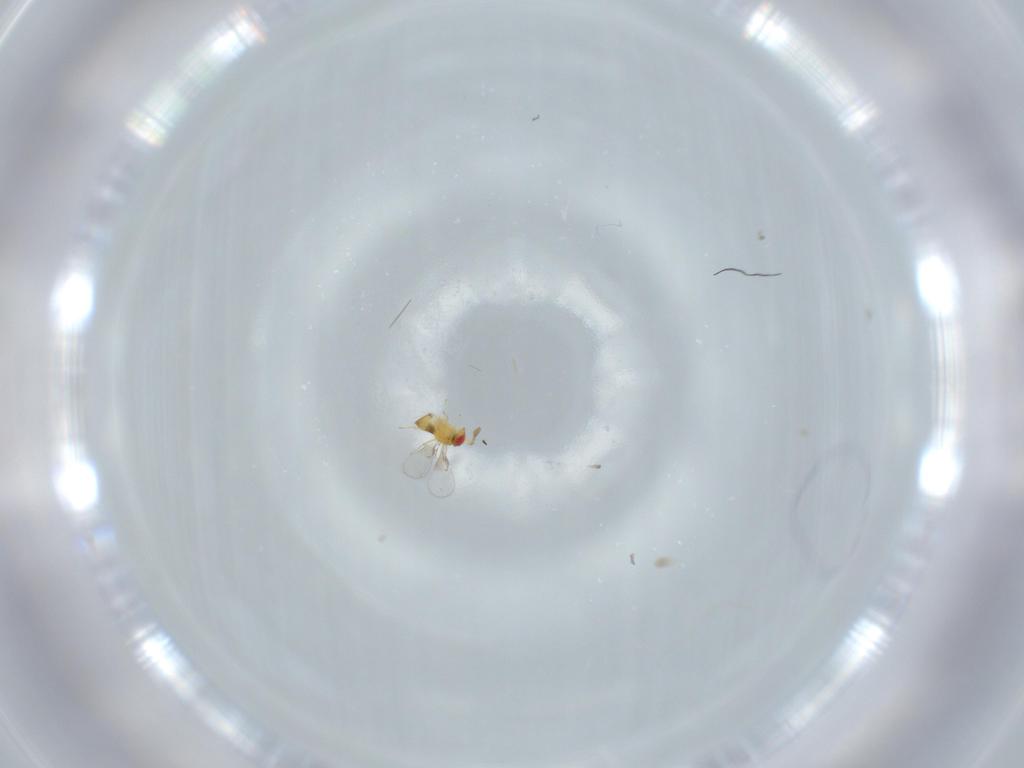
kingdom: Animalia
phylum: Arthropoda
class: Insecta
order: Hymenoptera
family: Trichogrammatidae
